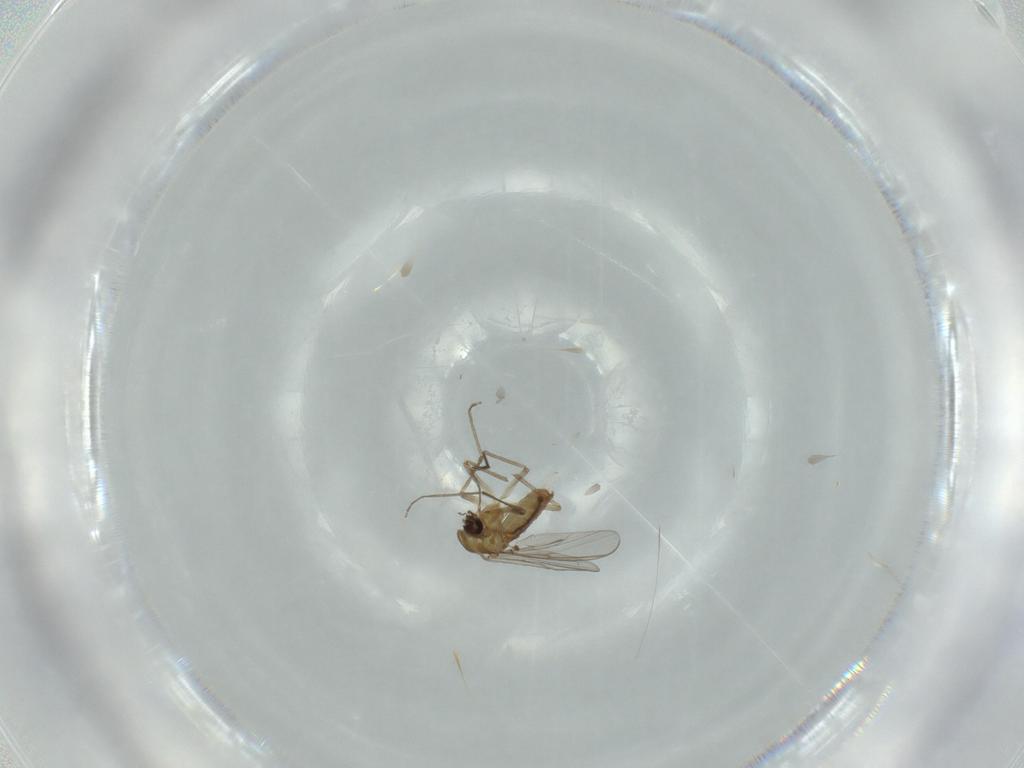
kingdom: Animalia
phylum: Arthropoda
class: Insecta
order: Diptera
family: Chironomidae
